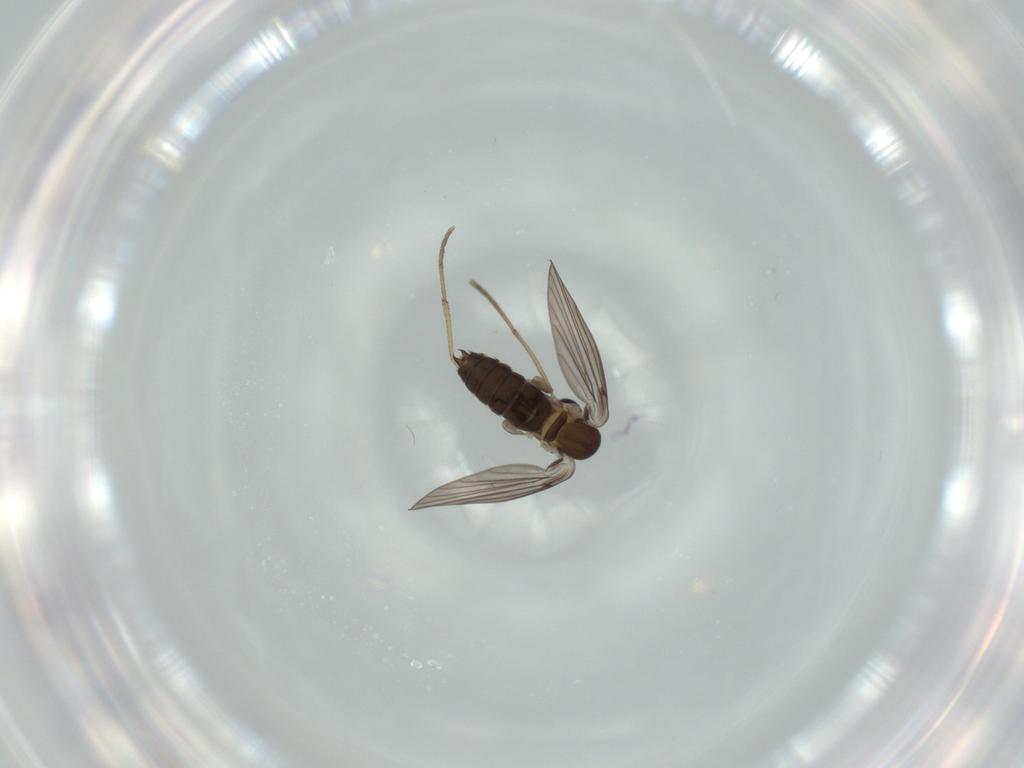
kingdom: Animalia
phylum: Arthropoda
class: Insecta
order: Diptera
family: Psychodidae
